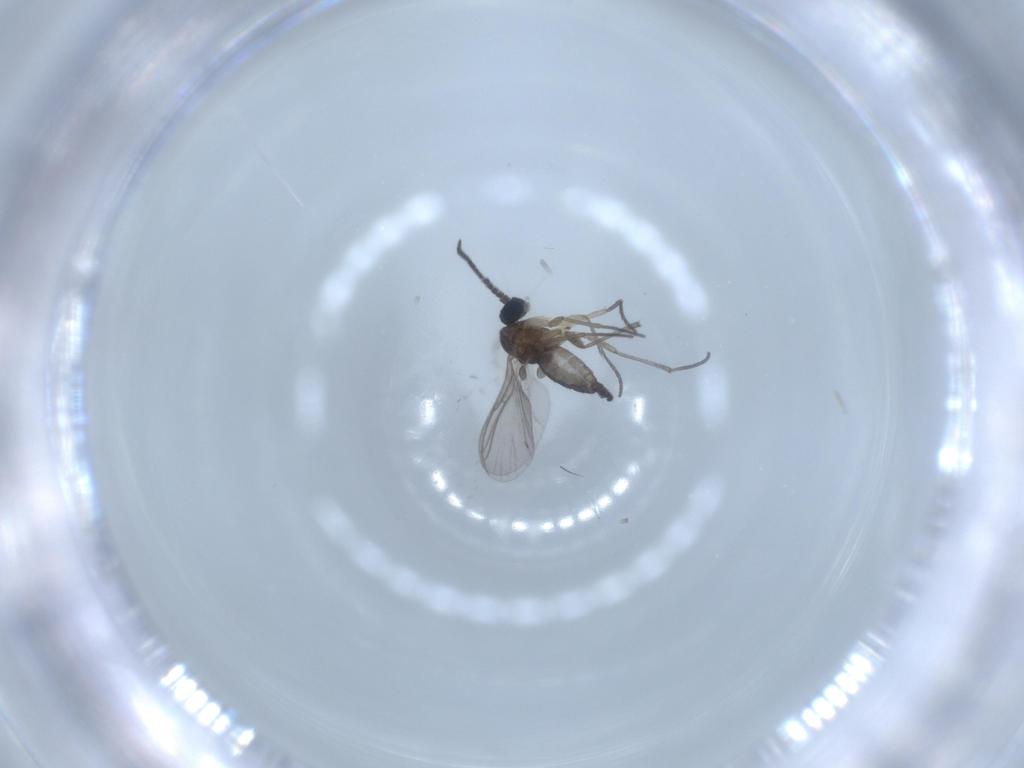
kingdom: Animalia
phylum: Arthropoda
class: Insecta
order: Diptera
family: Sciaridae
